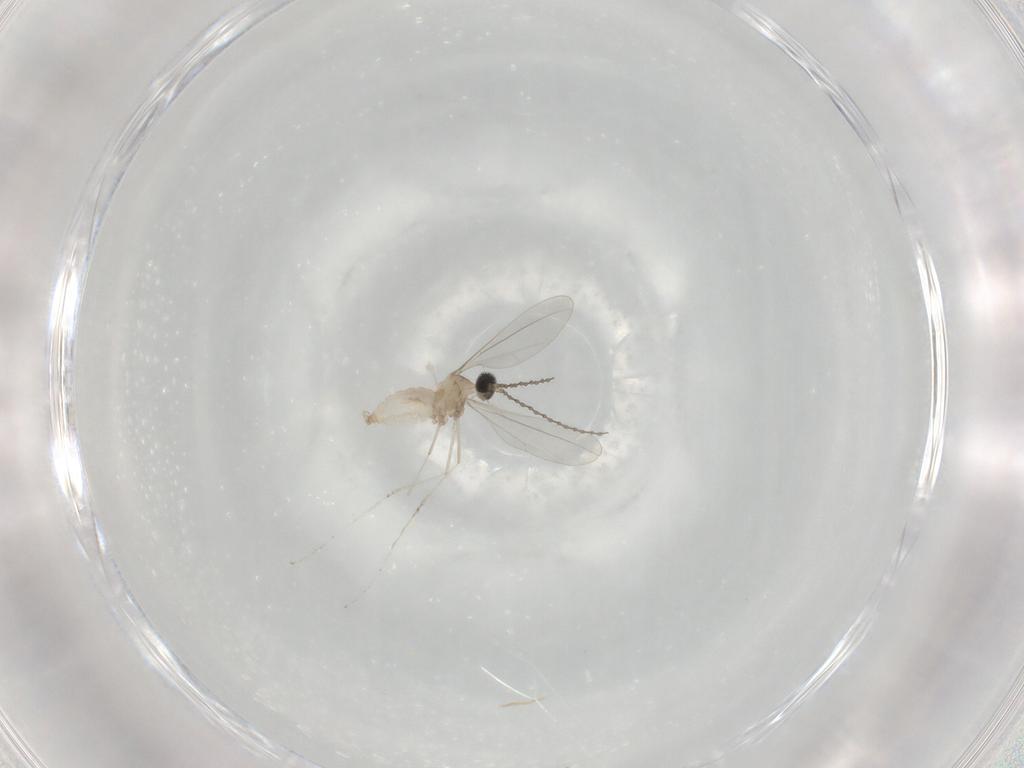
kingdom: Animalia
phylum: Arthropoda
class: Insecta
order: Diptera
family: Cecidomyiidae
